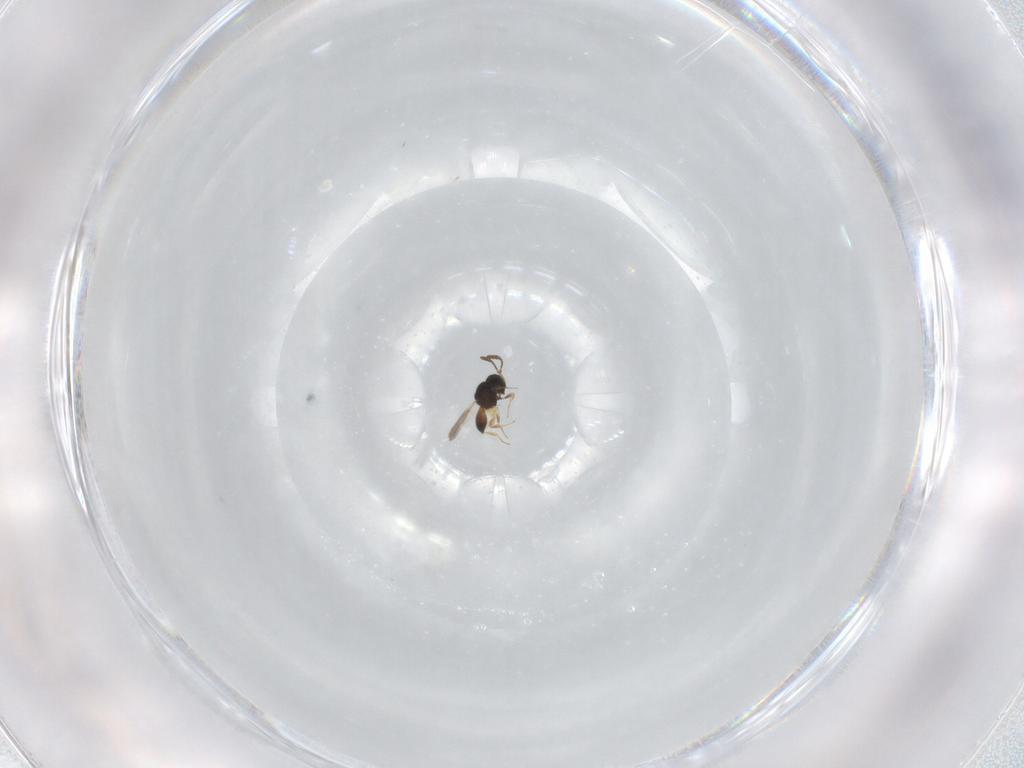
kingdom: Animalia
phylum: Arthropoda
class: Insecta
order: Hymenoptera
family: Scelionidae
